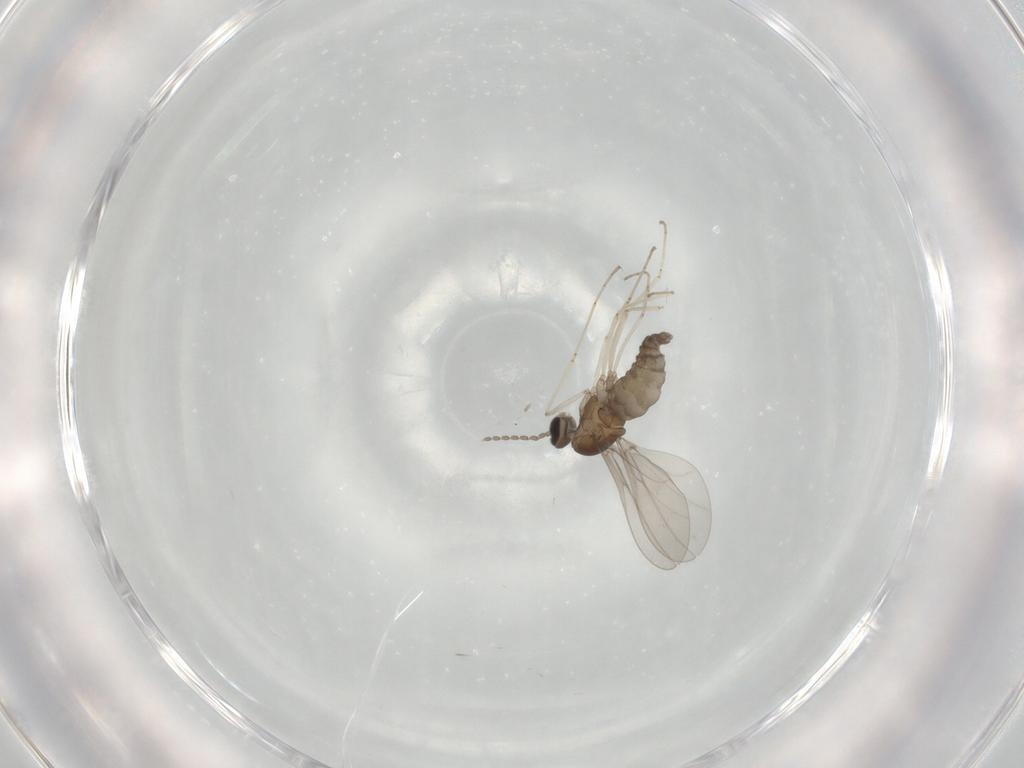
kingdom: Animalia
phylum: Arthropoda
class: Insecta
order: Diptera
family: Cecidomyiidae
